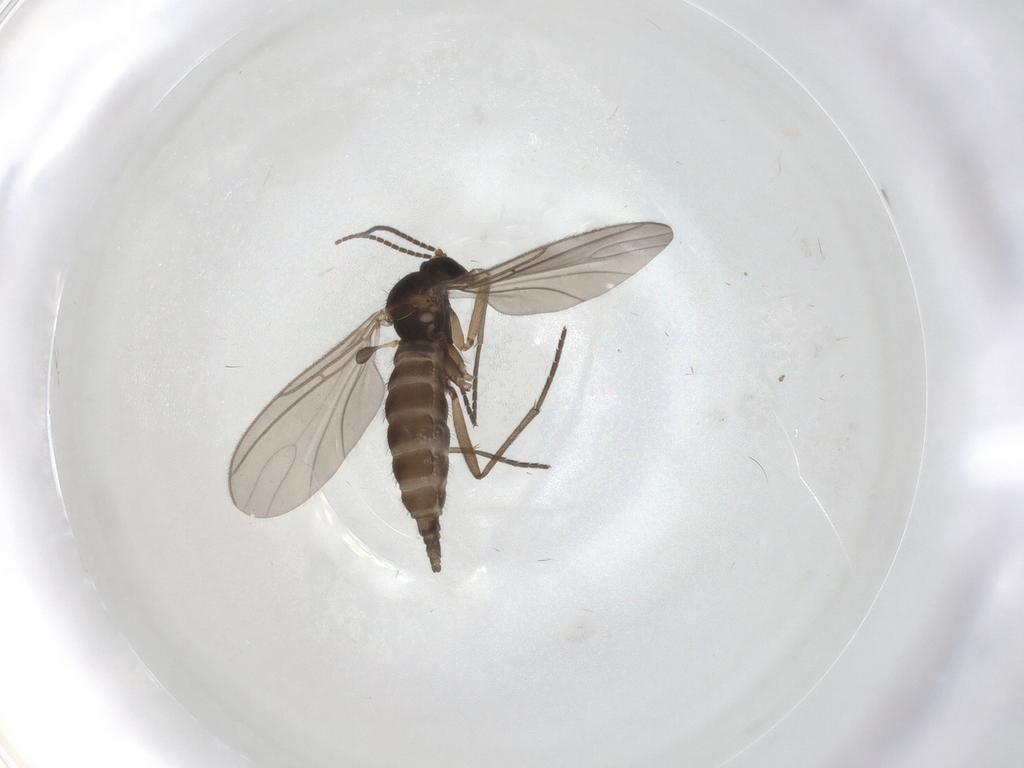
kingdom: Animalia
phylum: Arthropoda
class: Insecta
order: Diptera
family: Sciaridae
